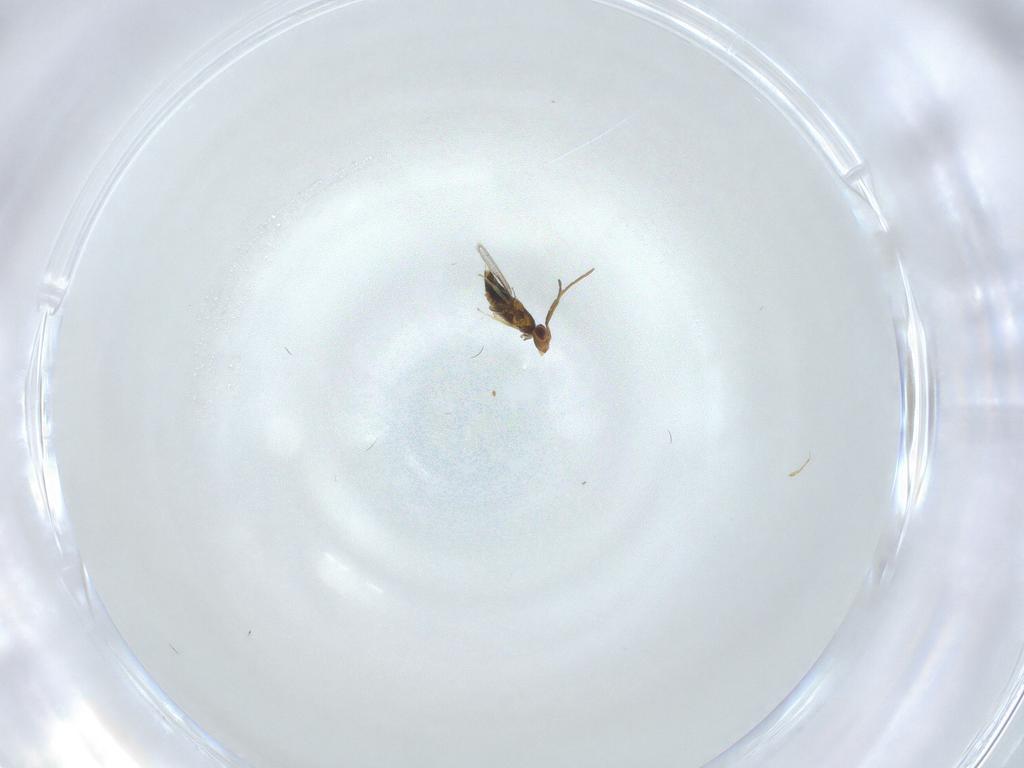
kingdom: Animalia
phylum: Arthropoda
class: Insecta
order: Hymenoptera
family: Aphelinidae
